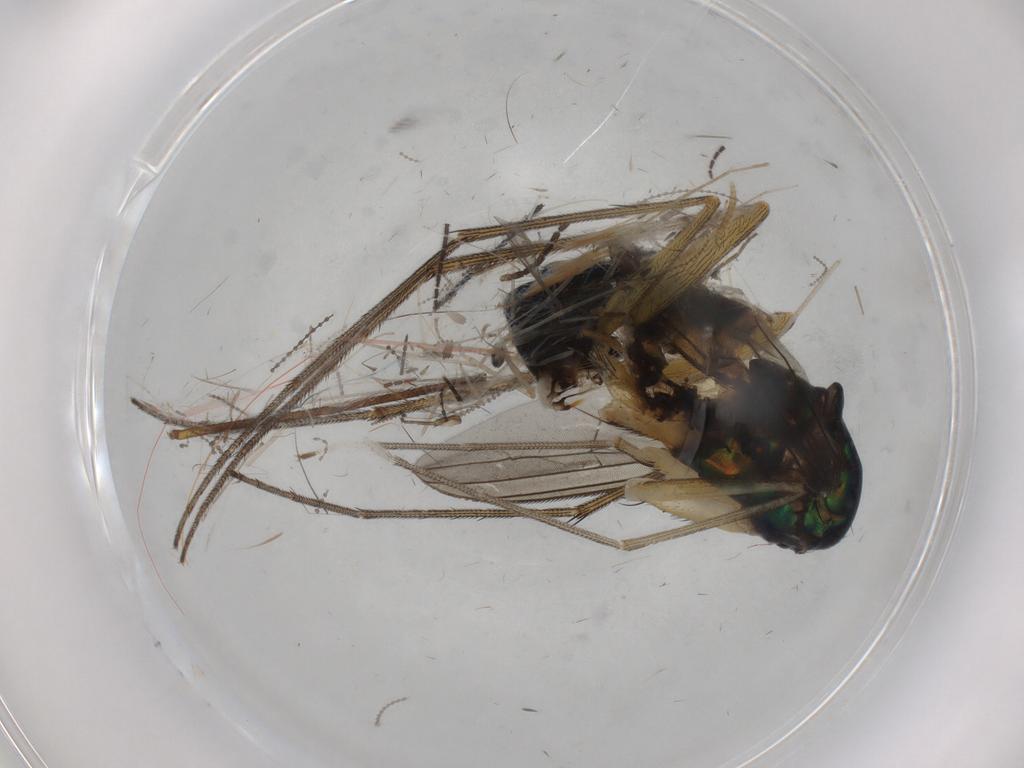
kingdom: Animalia
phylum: Arthropoda
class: Insecta
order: Diptera
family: Dolichopodidae
